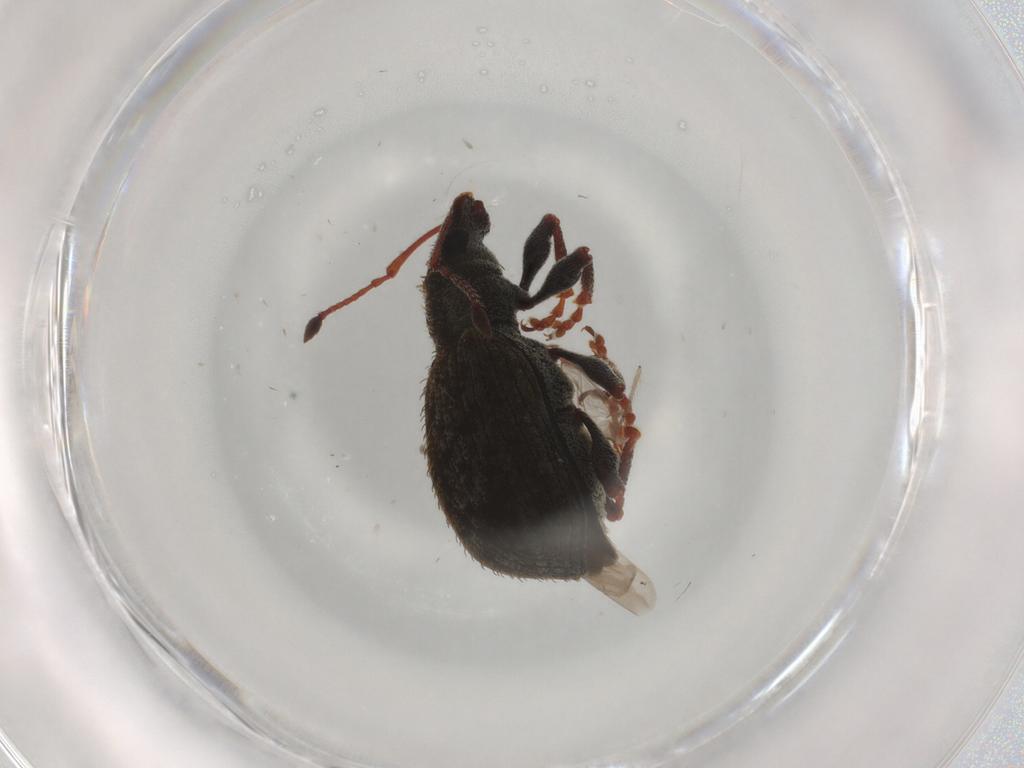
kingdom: Animalia
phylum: Arthropoda
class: Insecta
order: Coleoptera
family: Curculionidae
